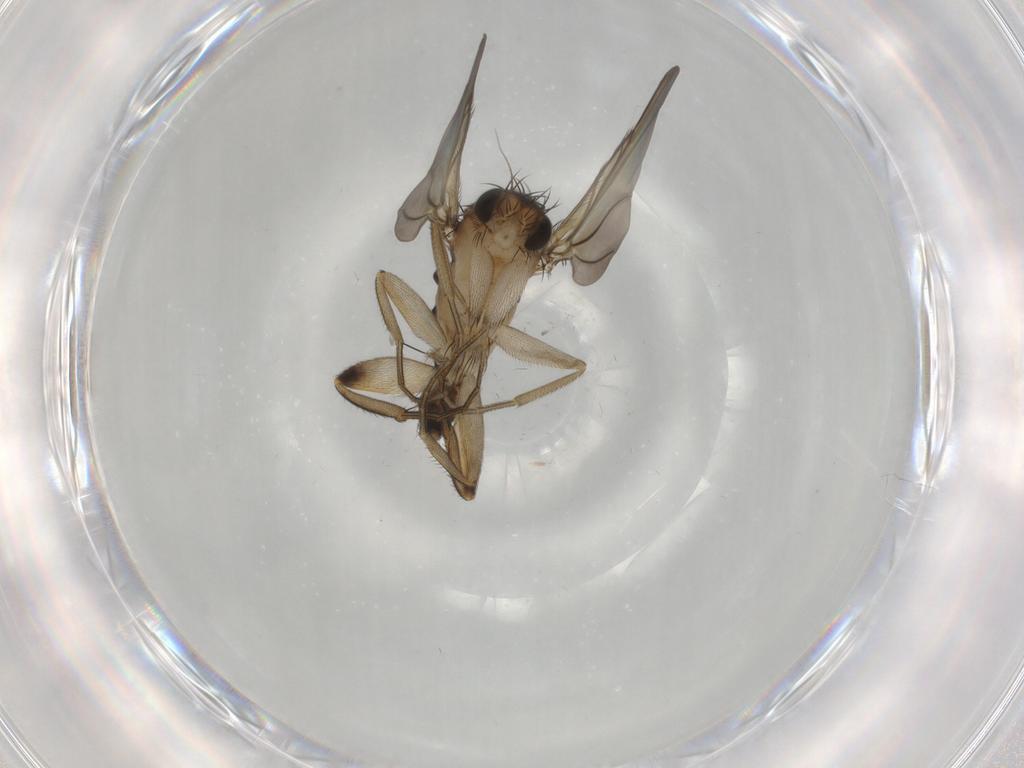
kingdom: Animalia
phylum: Arthropoda
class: Insecta
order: Diptera
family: Phoridae
